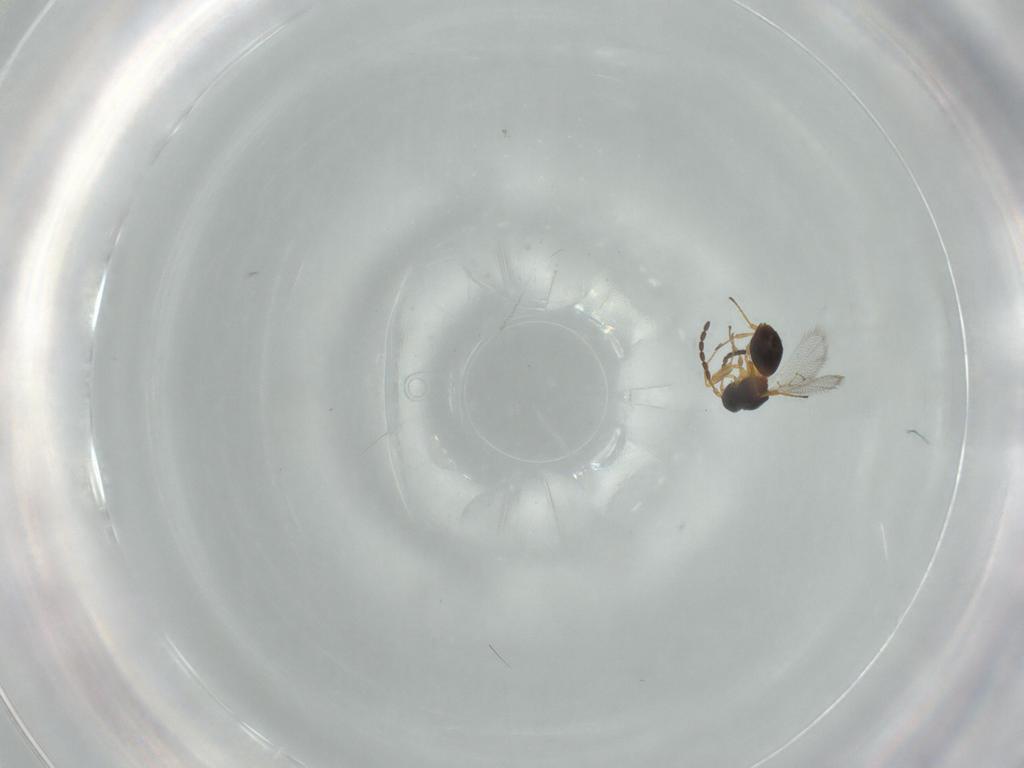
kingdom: Animalia
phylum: Arthropoda
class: Insecta
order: Hymenoptera
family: Figitidae
